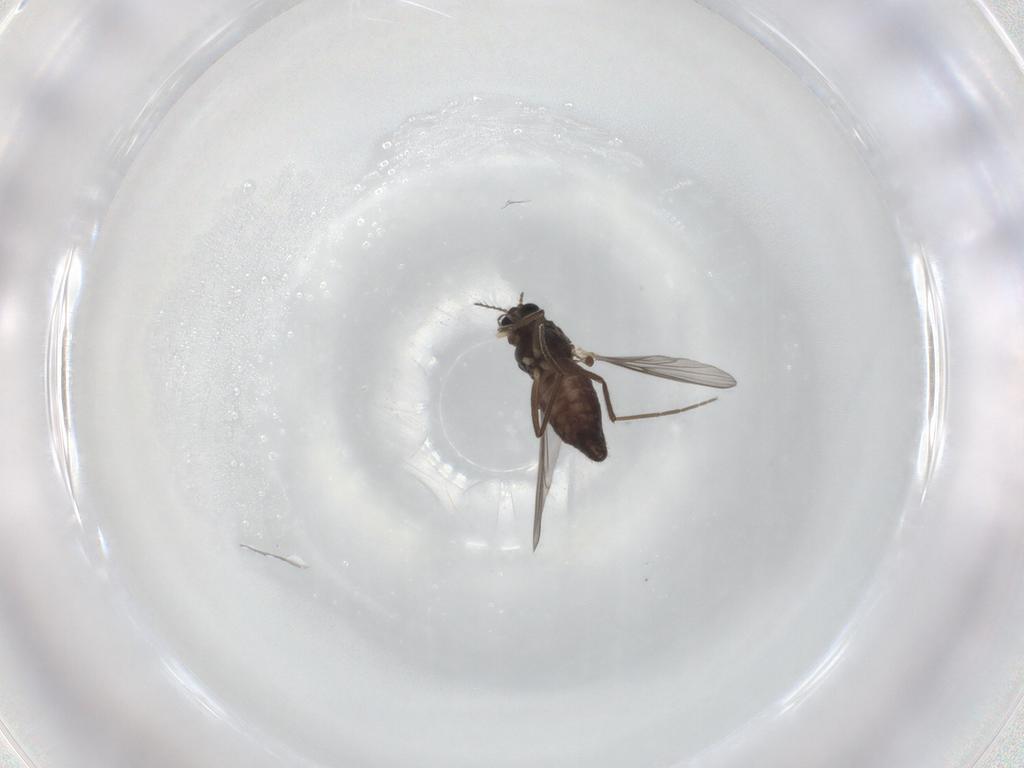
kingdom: Animalia
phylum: Arthropoda
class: Insecta
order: Diptera
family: Chironomidae
